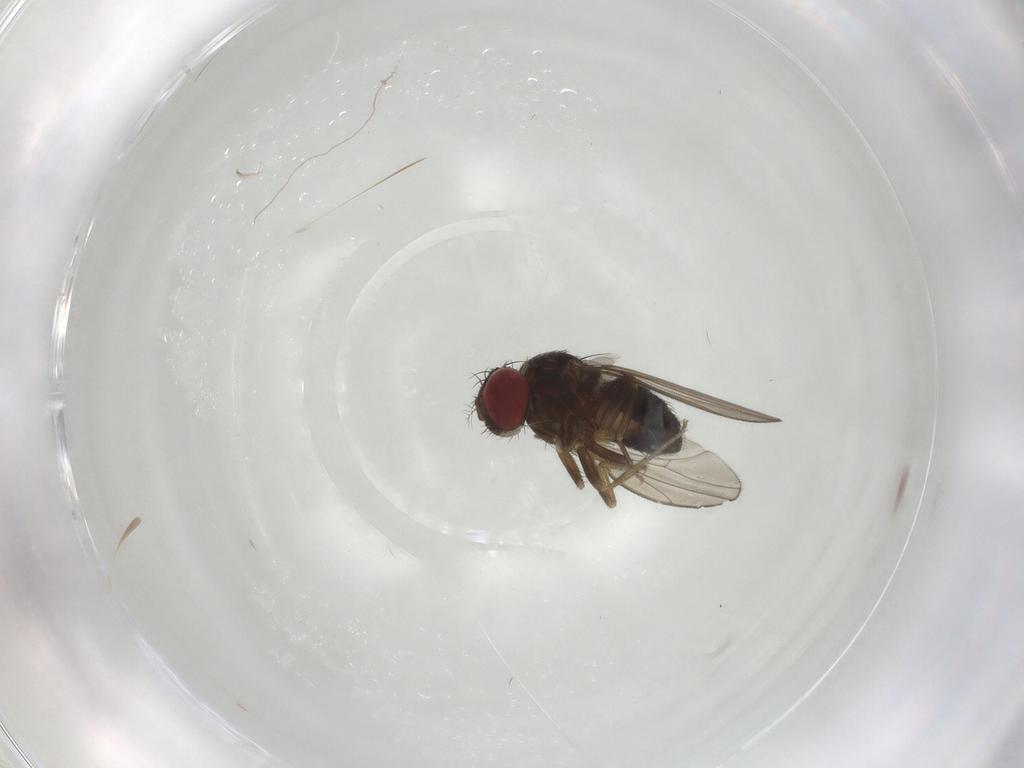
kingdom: Animalia
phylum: Arthropoda
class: Insecta
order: Diptera
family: Drosophilidae
